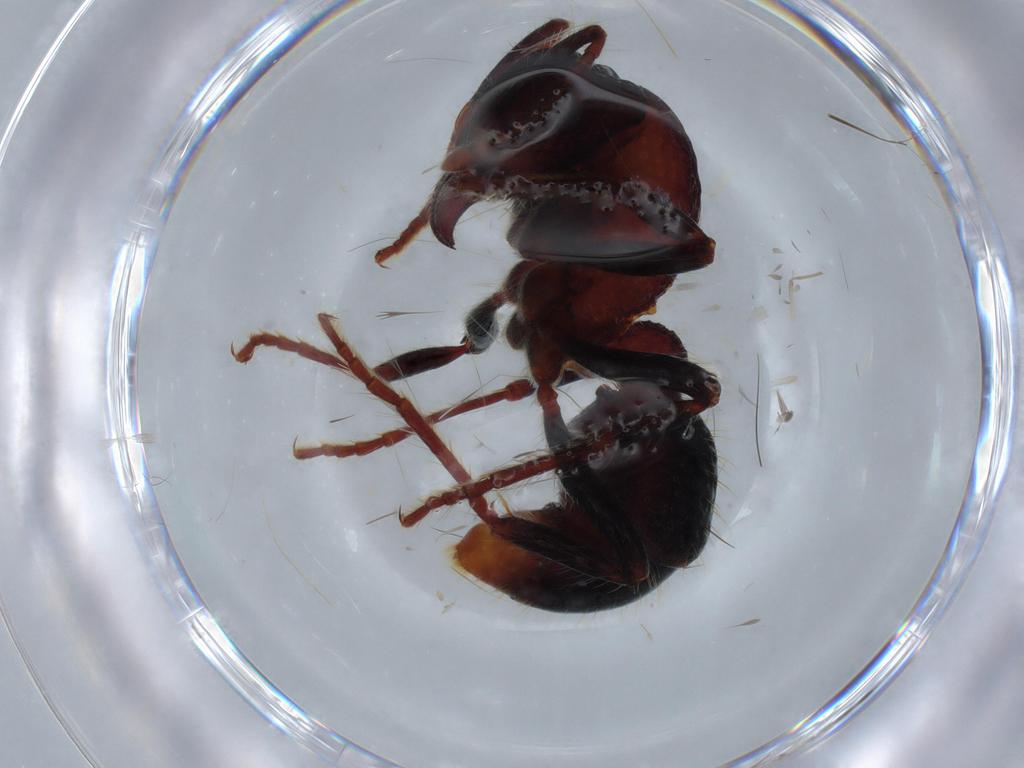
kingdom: Animalia
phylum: Arthropoda
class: Insecta
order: Hymenoptera
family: Formicidae
